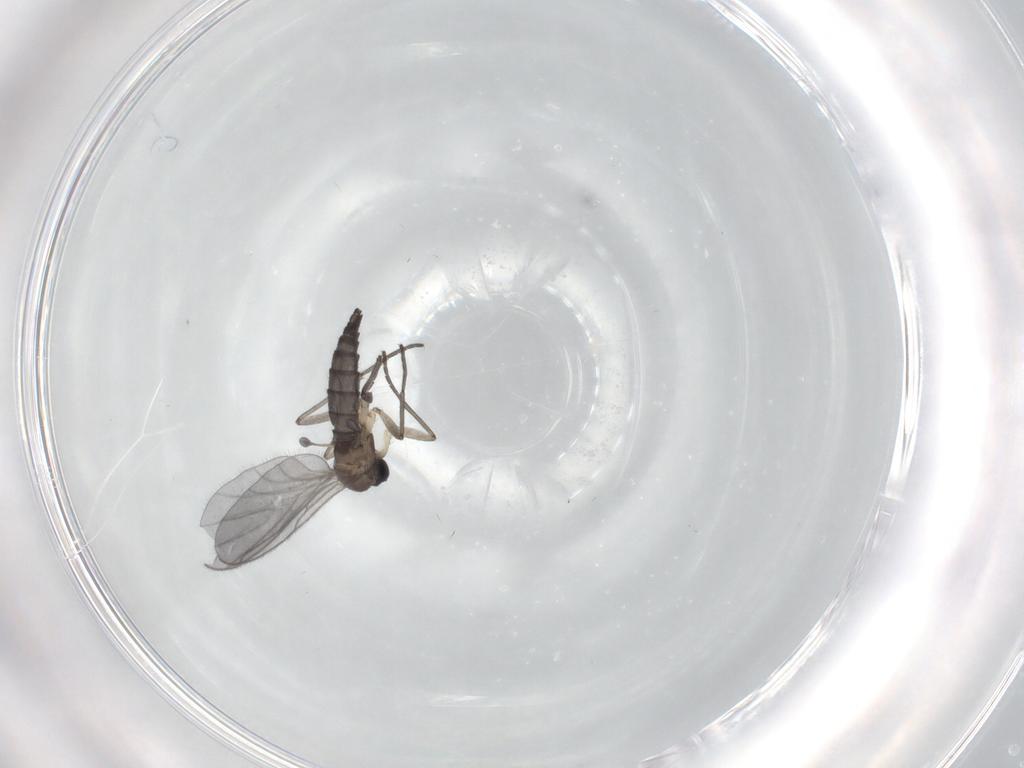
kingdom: Animalia
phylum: Arthropoda
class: Insecta
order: Diptera
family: Sciaridae
